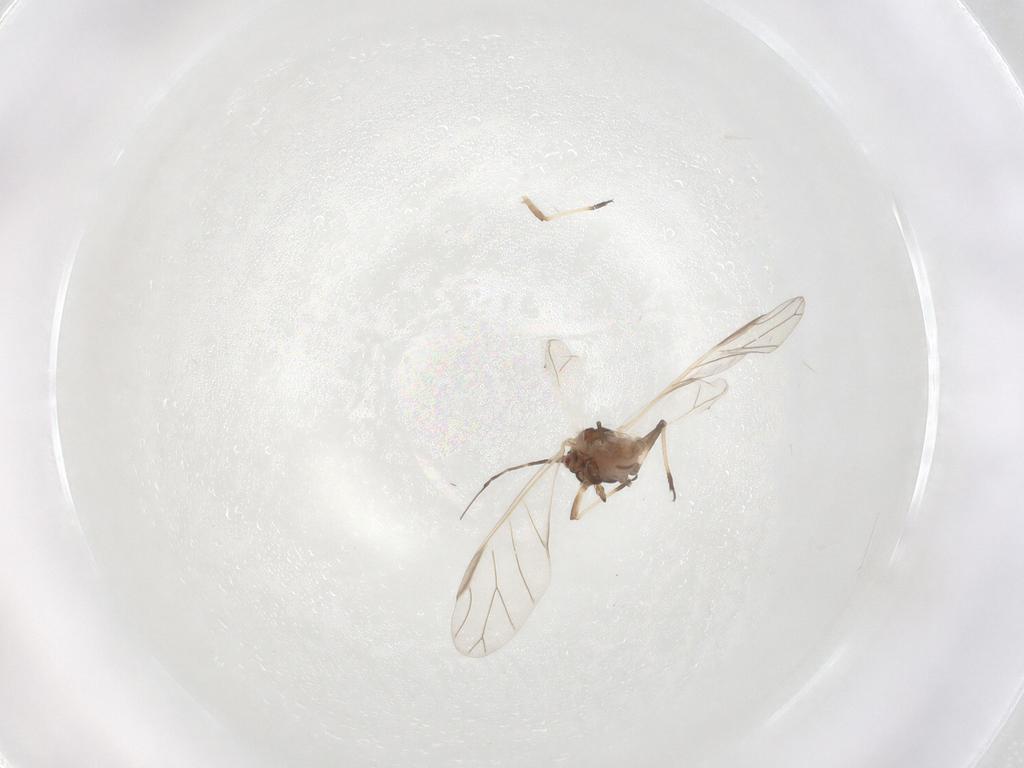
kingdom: Animalia
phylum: Arthropoda
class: Insecta
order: Hemiptera
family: Aphididae
